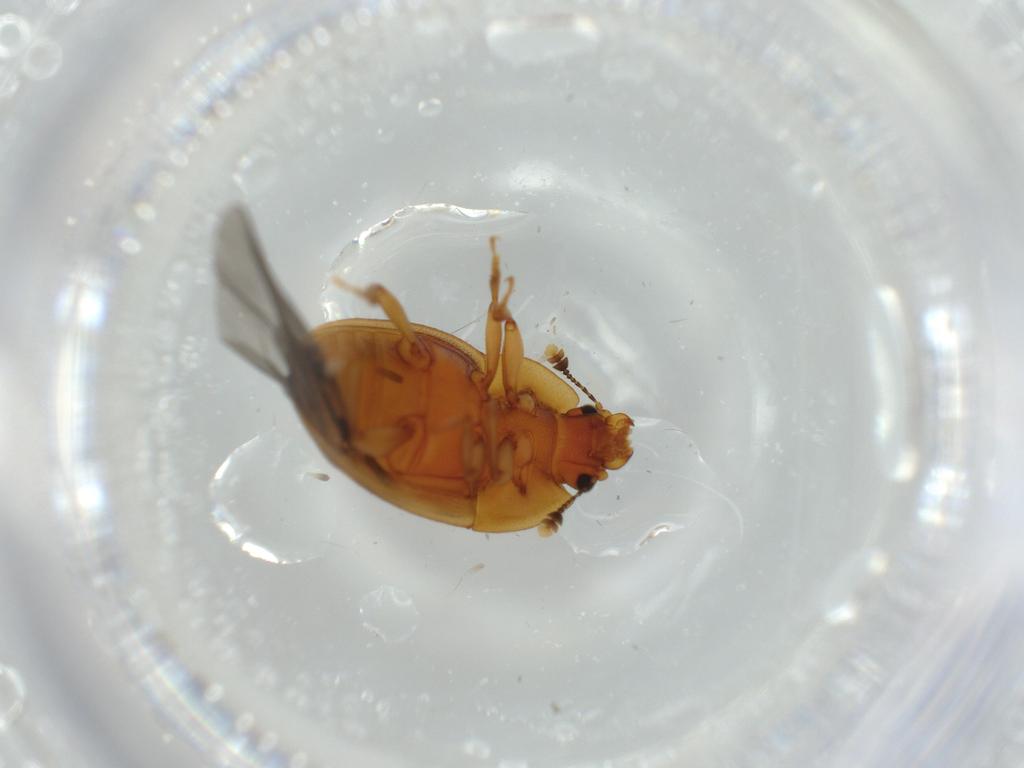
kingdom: Animalia
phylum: Arthropoda
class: Insecta
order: Coleoptera
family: Elateridae
